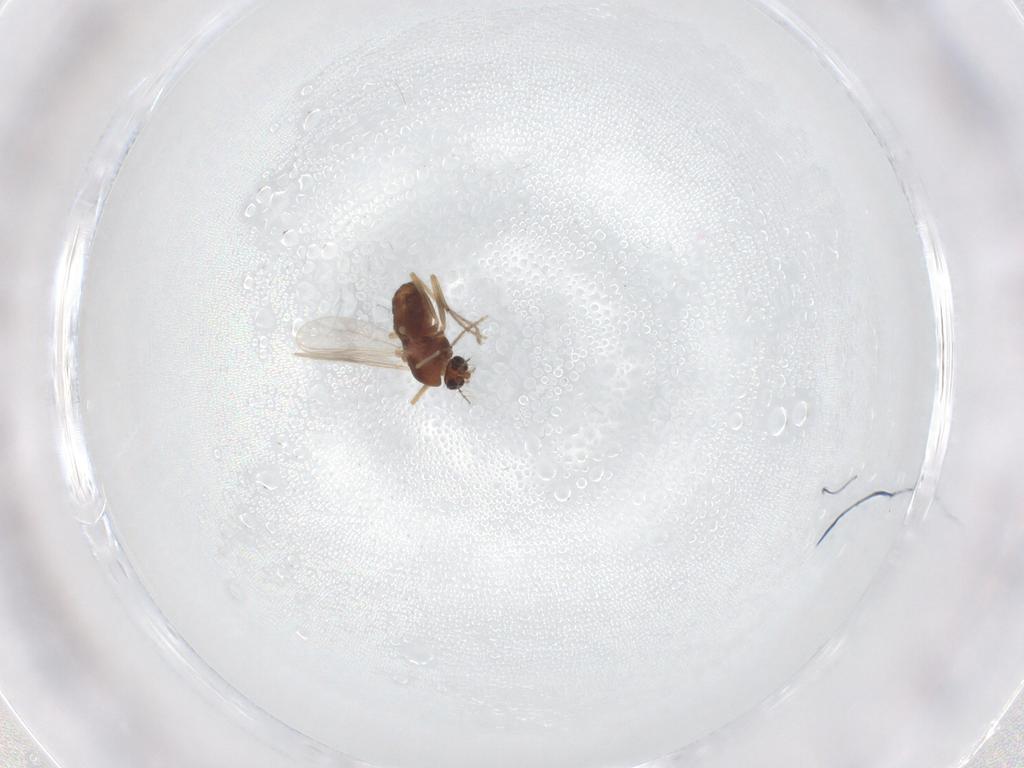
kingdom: Animalia
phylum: Arthropoda
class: Insecta
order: Diptera
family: Chironomidae
